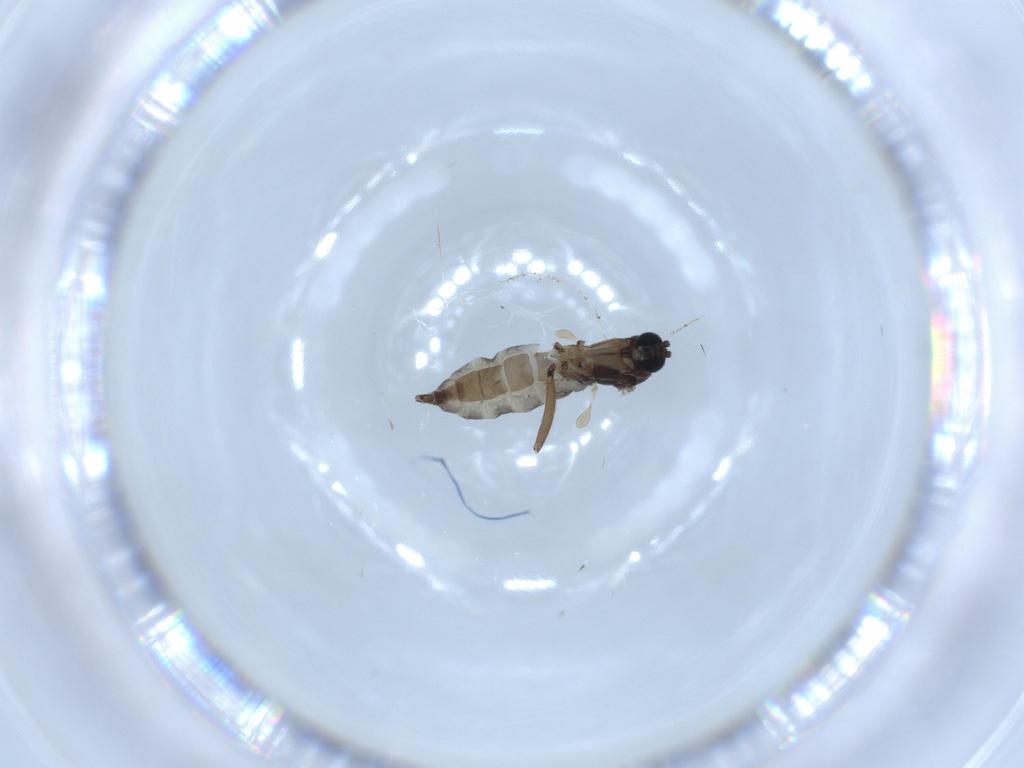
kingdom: Animalia
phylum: Arthropoda
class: Insecta
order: Diptera
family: Sciaridae
